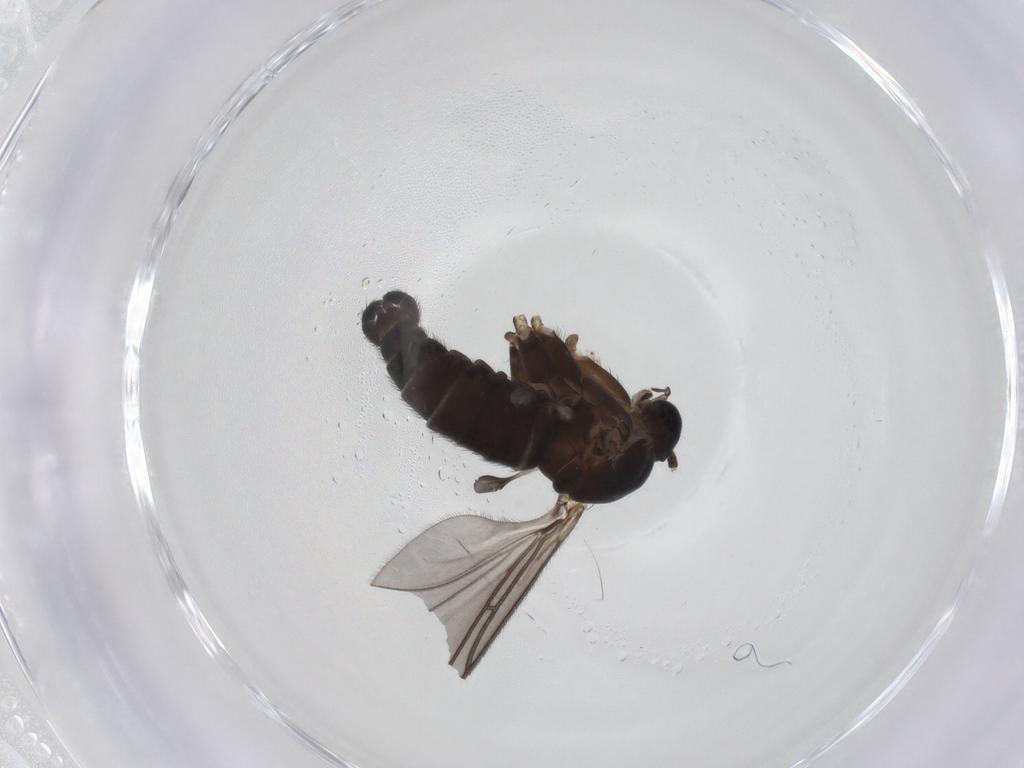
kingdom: Animalia
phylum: Arthropoda
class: Insecta
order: Diptera
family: Sciaridae
